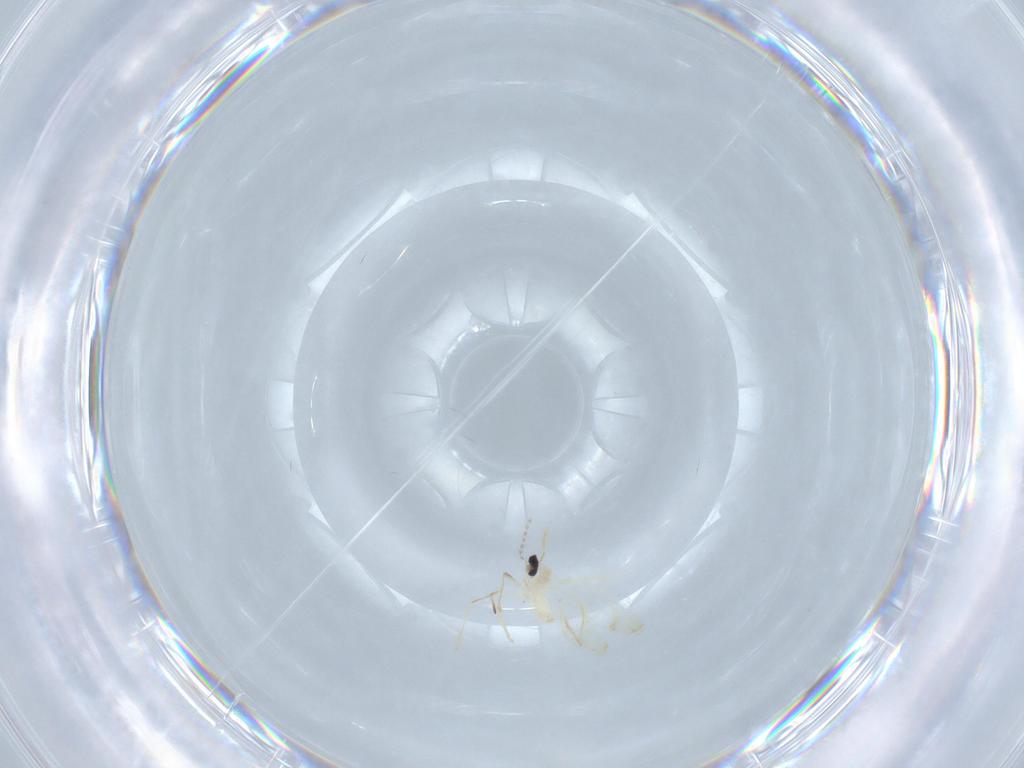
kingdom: Animalia
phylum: Arthropoda
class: Insecta
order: Diptera
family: Cecidomyiidae
